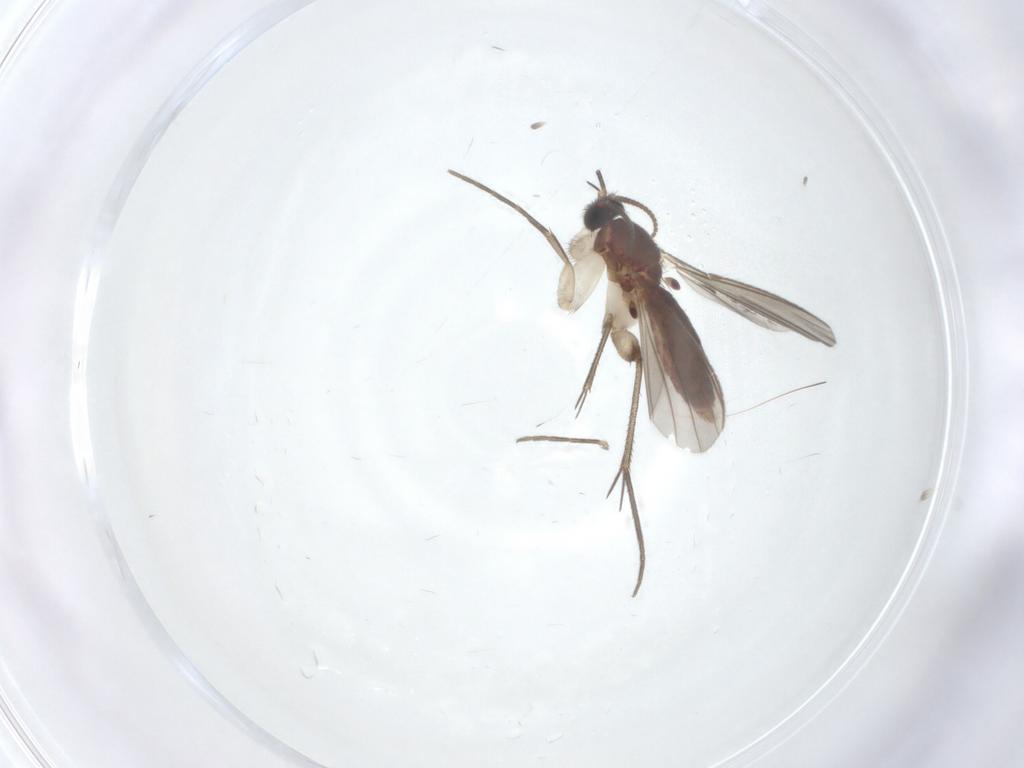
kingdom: Animalia
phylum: Arthropoda
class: Insecta
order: Diptera
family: Mycetophilidae
